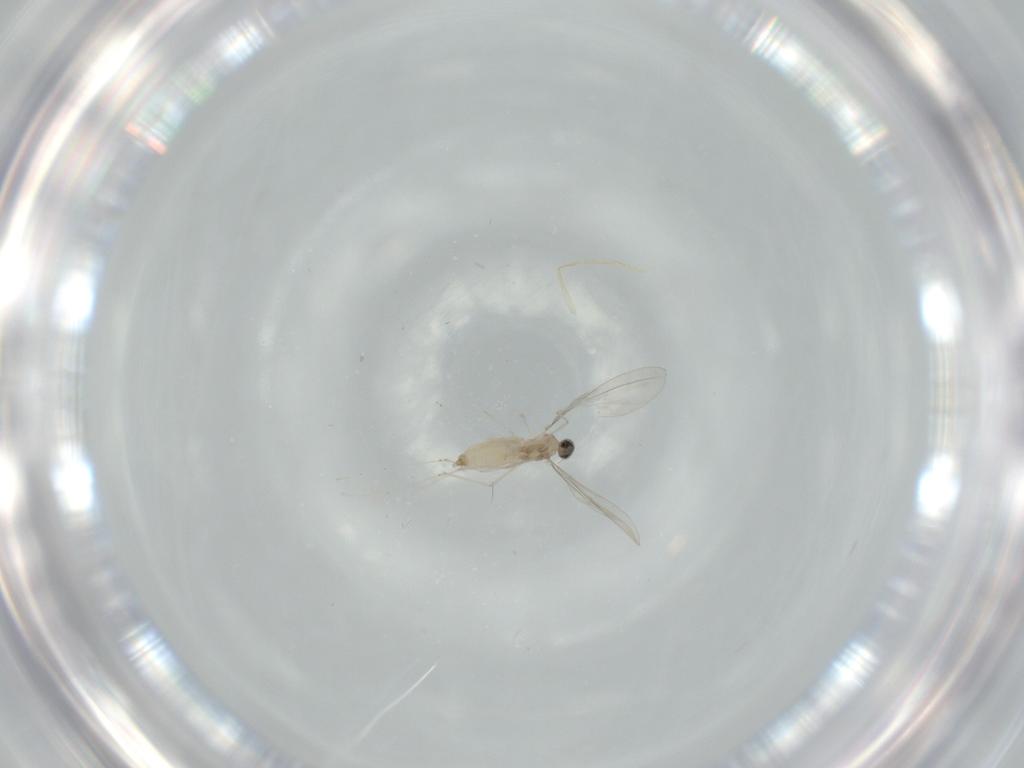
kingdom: Animalia
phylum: Arthropoda
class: Insecta
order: Diptera
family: Cecidomyiidae
